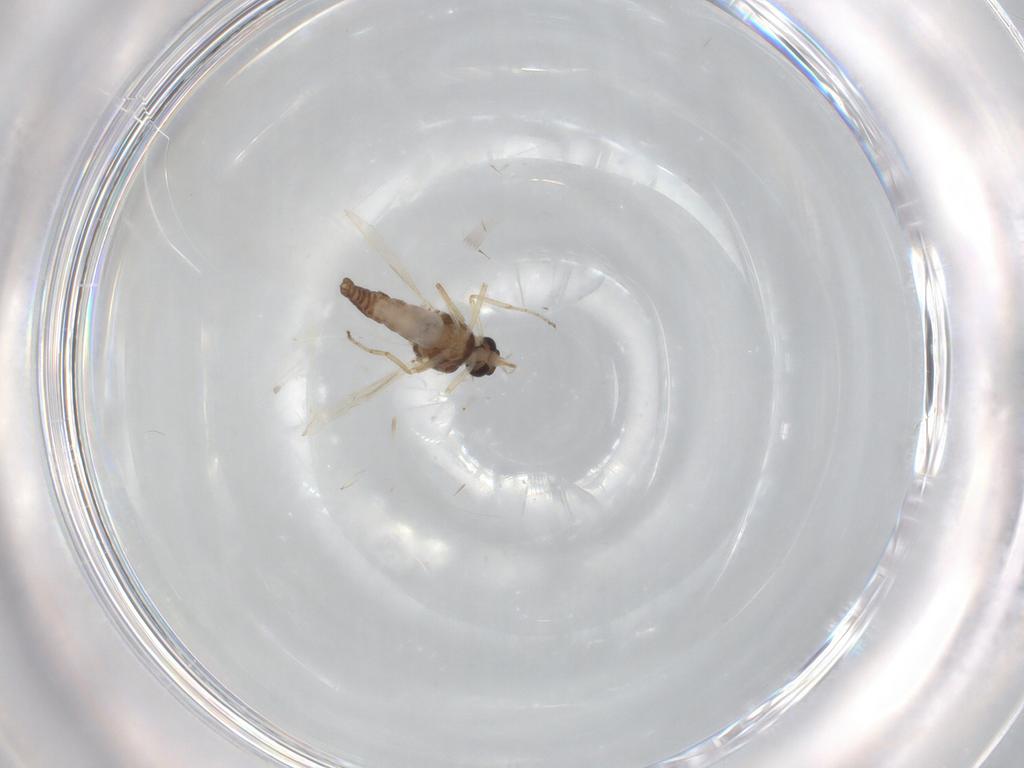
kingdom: Animalia
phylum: Arthropoda
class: Insecta
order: Diptera
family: Ceratopogonidae
